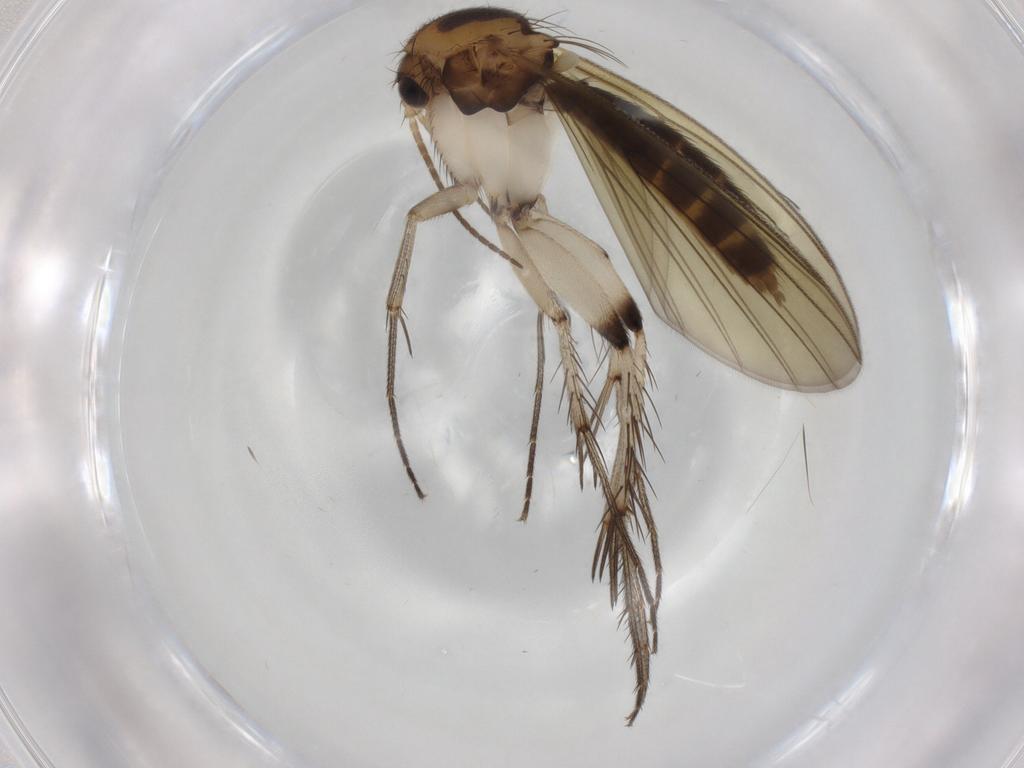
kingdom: Animalia
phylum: Arthropoda
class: Insecta
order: Diptera
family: Mycetophilidae
